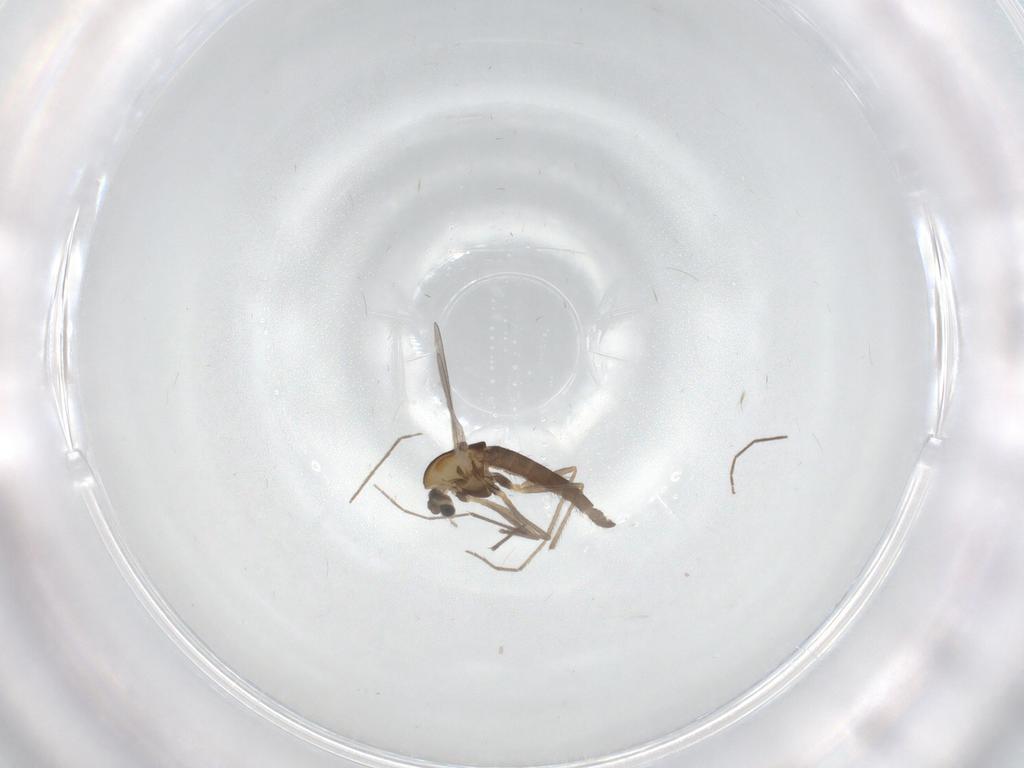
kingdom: Animalia
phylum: Arthropoda
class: Insecta
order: Diptera
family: Chironomidae
